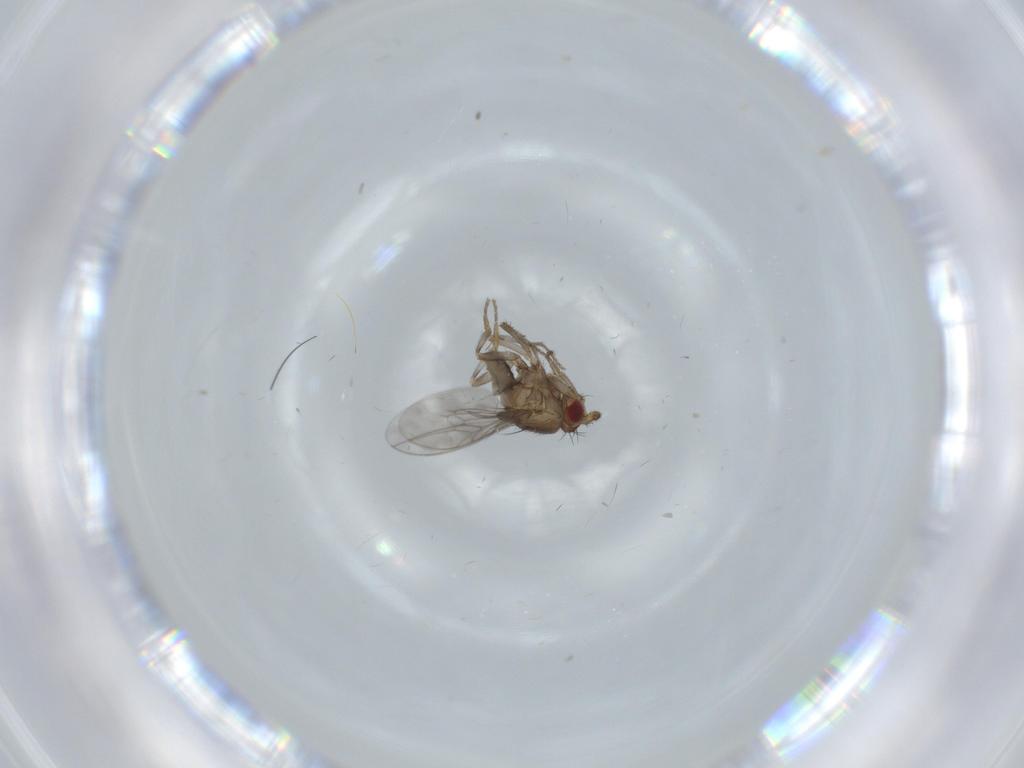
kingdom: Animalia
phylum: Arthropoda
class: Insecta
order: Diptera
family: Sphaeroceridae
